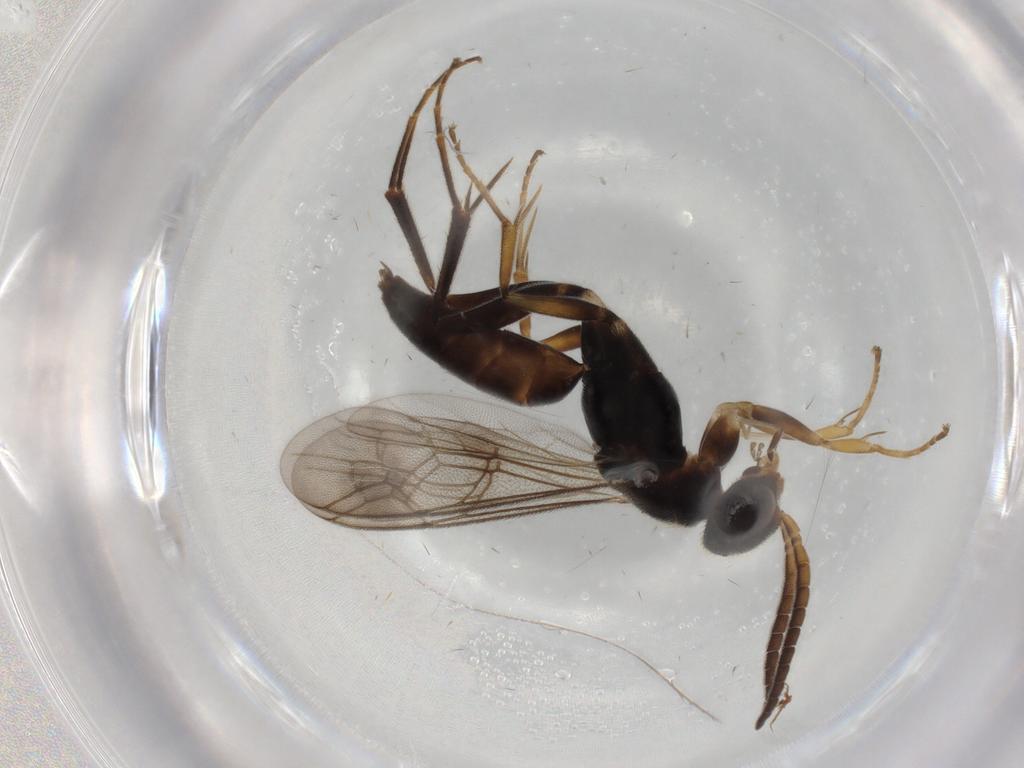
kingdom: Animalia
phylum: Arthropoda
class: Insecta
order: Hymenoptera
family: Pompilidae
